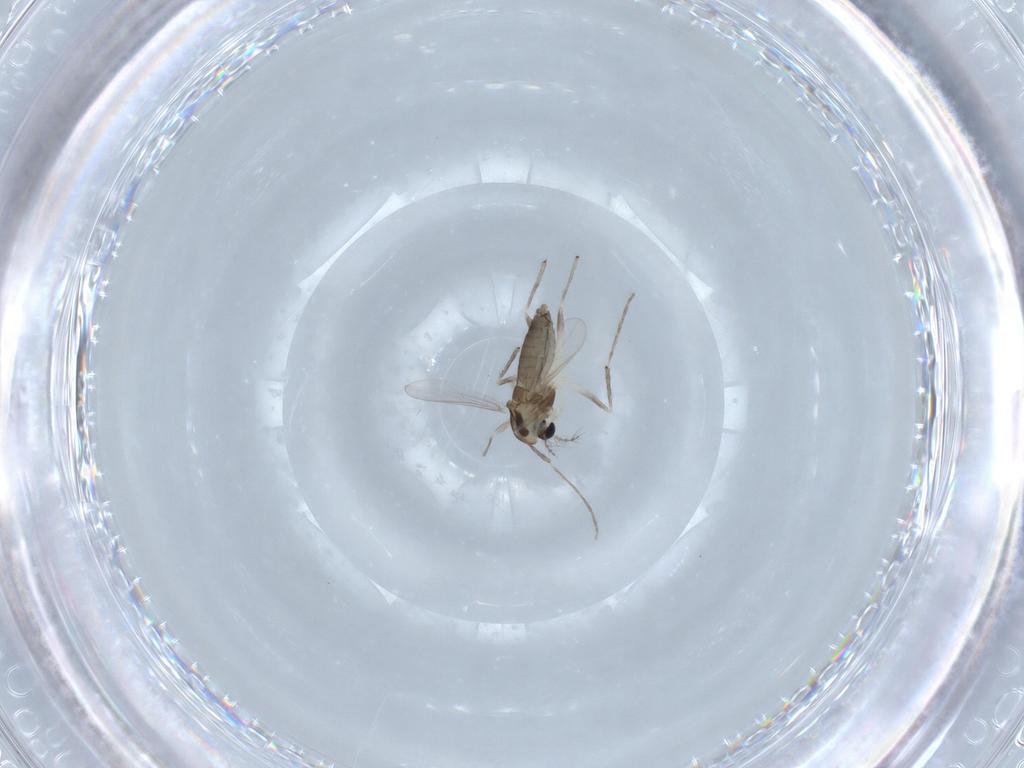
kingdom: Animalia
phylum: Arthropoda
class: Insecta
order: Diptera
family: Chironomidae
